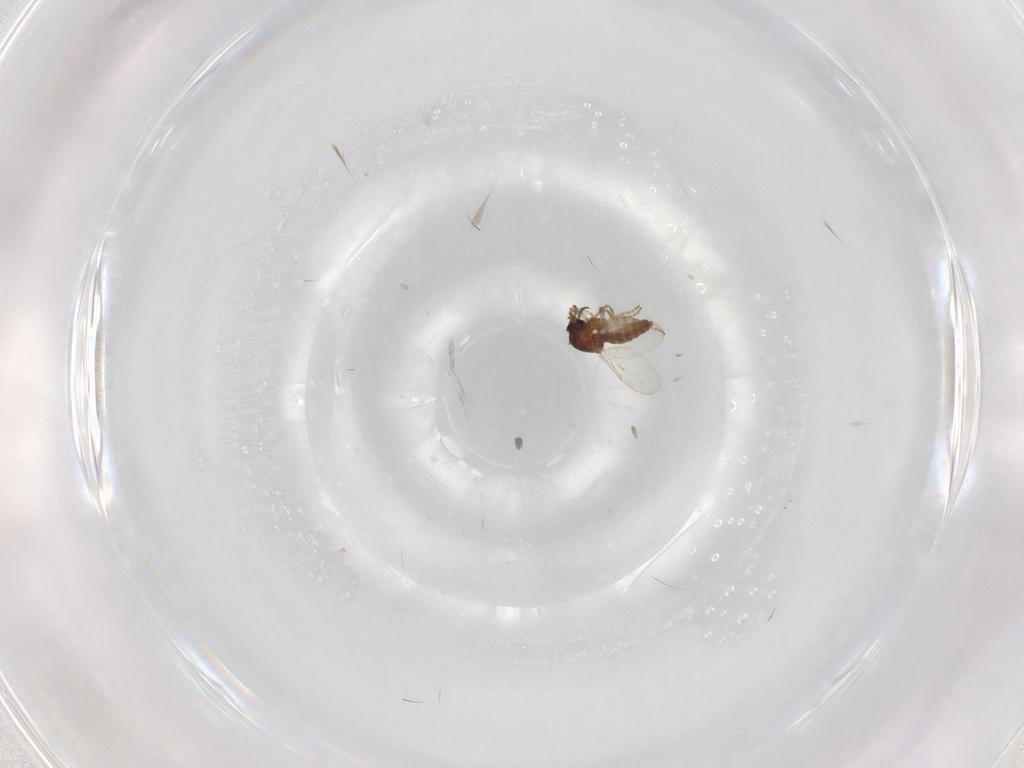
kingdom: Animalia
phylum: Arthropoda
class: Insecta
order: Diptera
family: Ceratopogonidae
